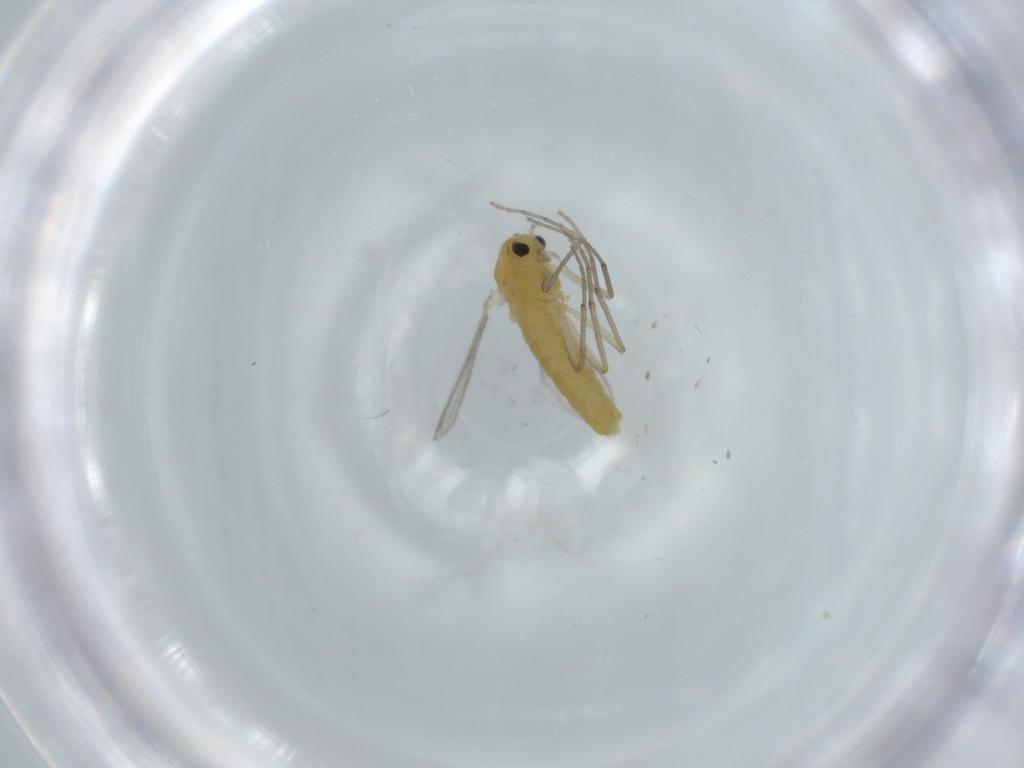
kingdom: Animalia
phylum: Arthropoda
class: Insecta
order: Diptera
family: Chironomidae
